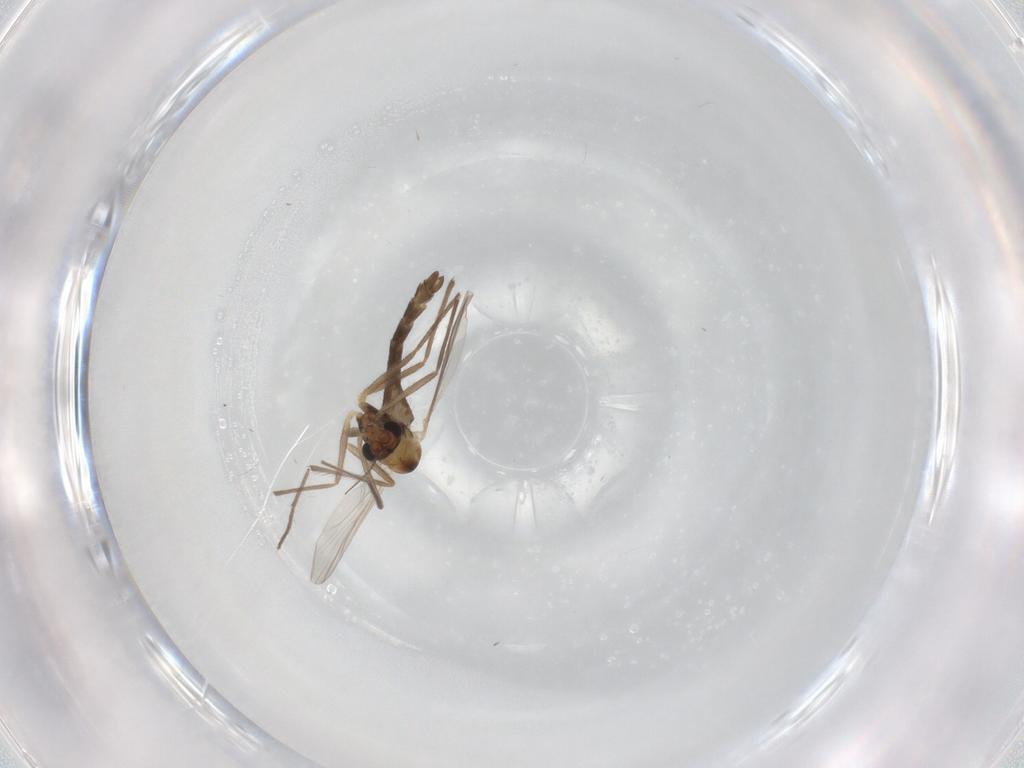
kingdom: Animalia
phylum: Arthropoda
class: Insecta
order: Diptera
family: Chironomidae
